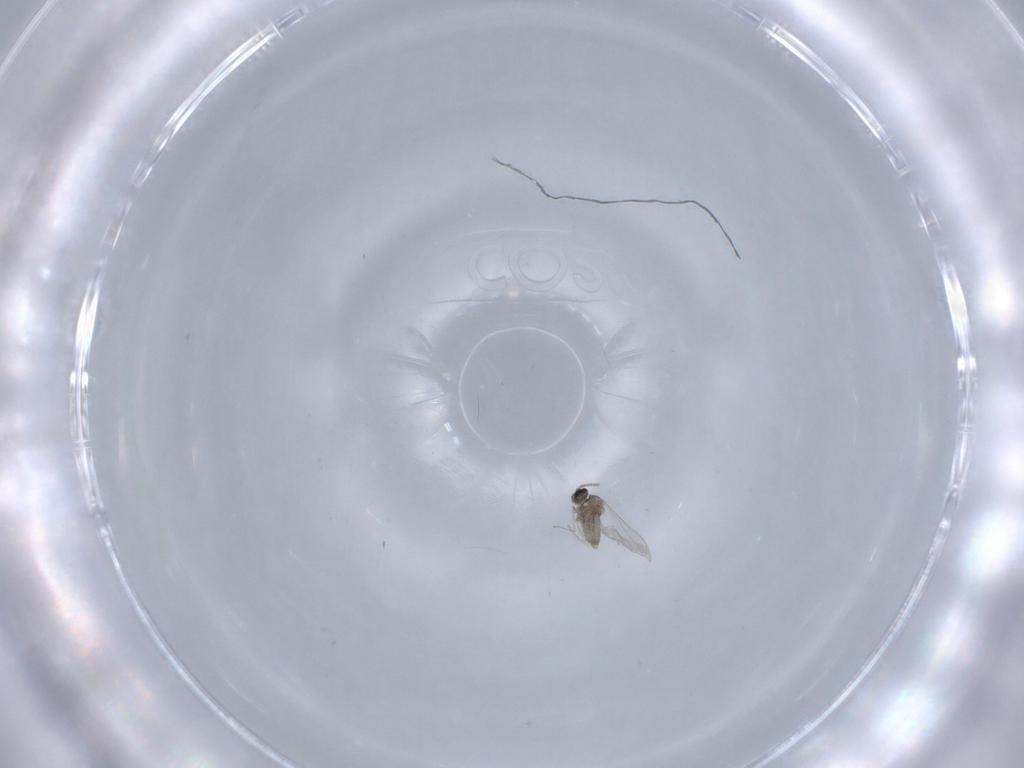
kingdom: Animalia
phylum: Arthropoda
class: Insecta
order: Diptera
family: Cecidomyiidae
